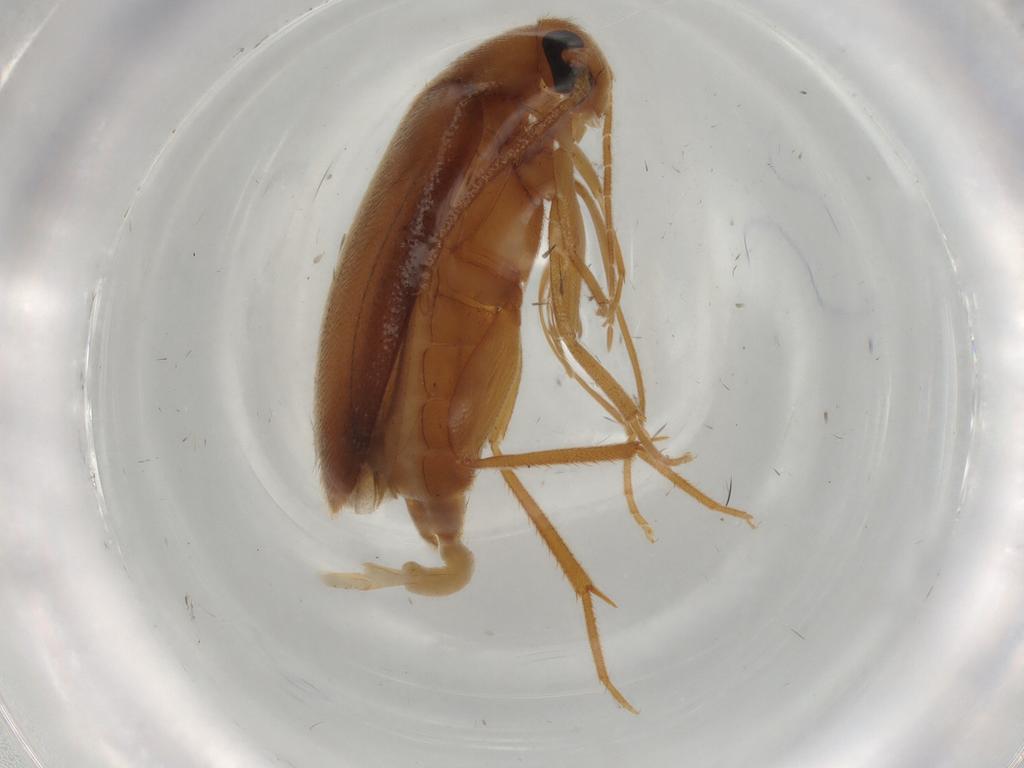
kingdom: Animalia
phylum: Arthropoda
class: Insecta
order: Coleoptera
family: Scraptiidae
